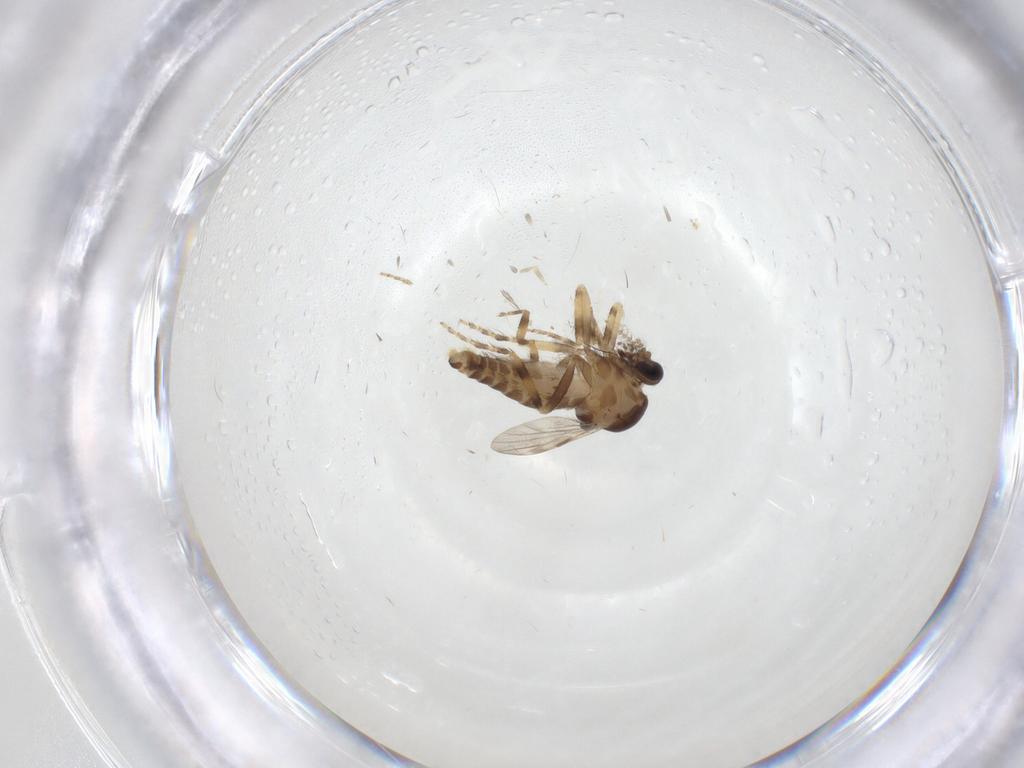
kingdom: Animalia
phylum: Arthropoda
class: Insecta
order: Diptera
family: Ceratopogonidae
